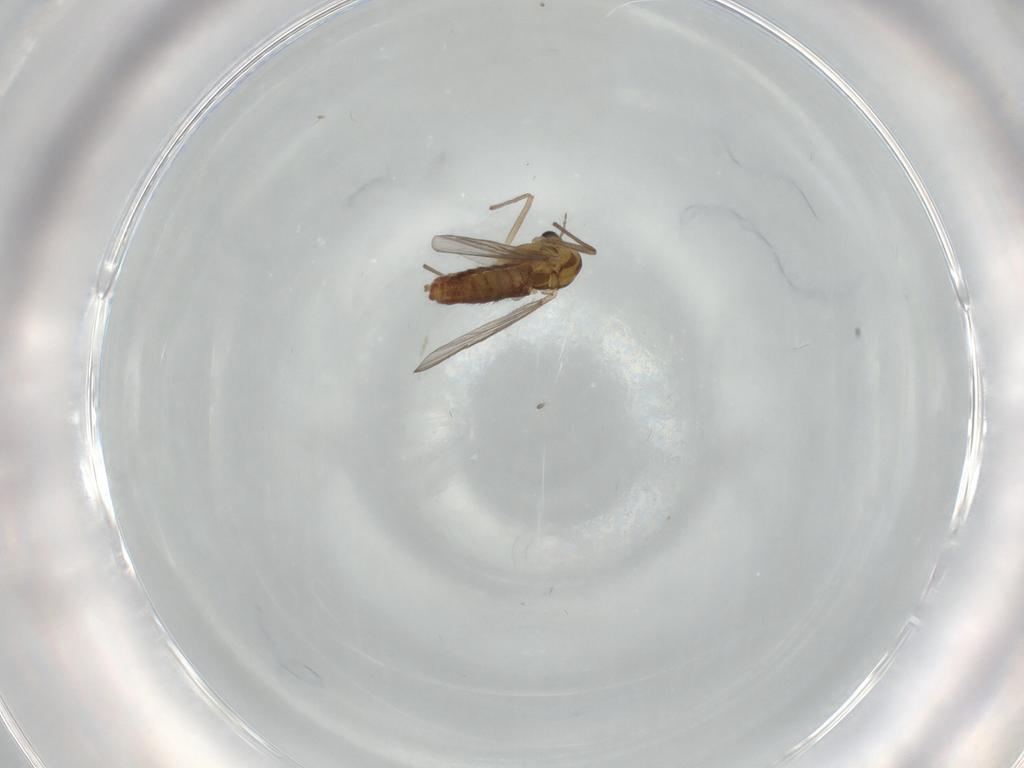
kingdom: Animalia
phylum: Arthropoda
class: Insecta
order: Diptera
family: Chironomidae
